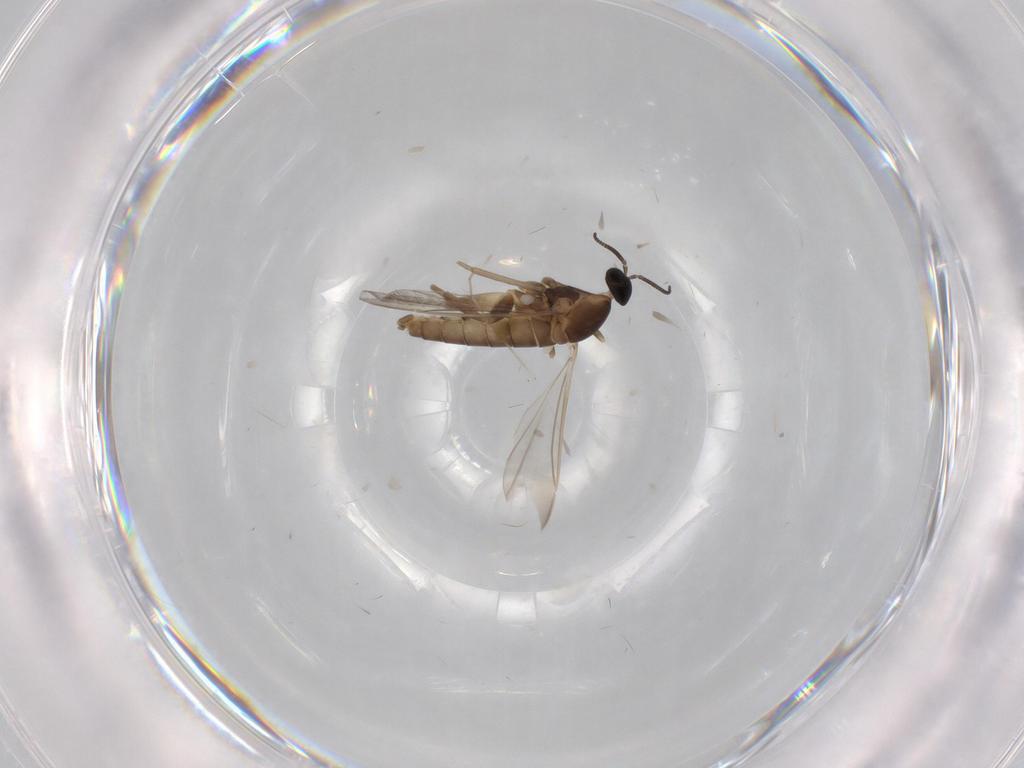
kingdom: Animalia
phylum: Arthropoda
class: Insecta
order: Diptera
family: Cecidomyiidae
